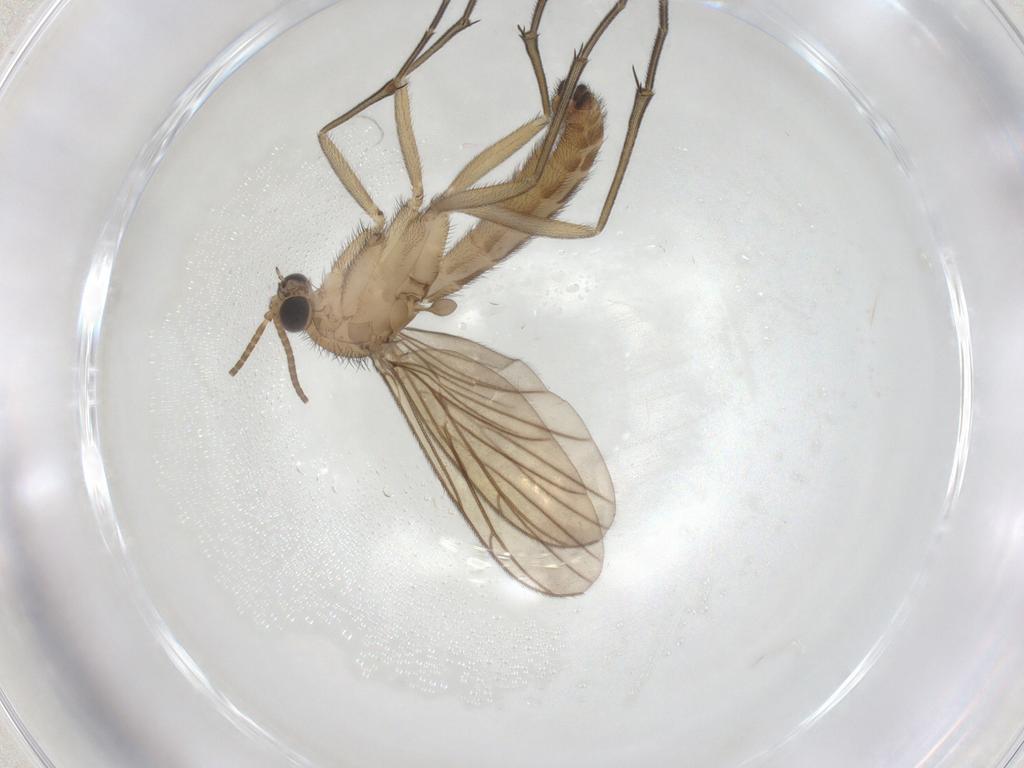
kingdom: Animalia
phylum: Arthropoda
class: Insecta
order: Diptera
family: Keroplatidae
